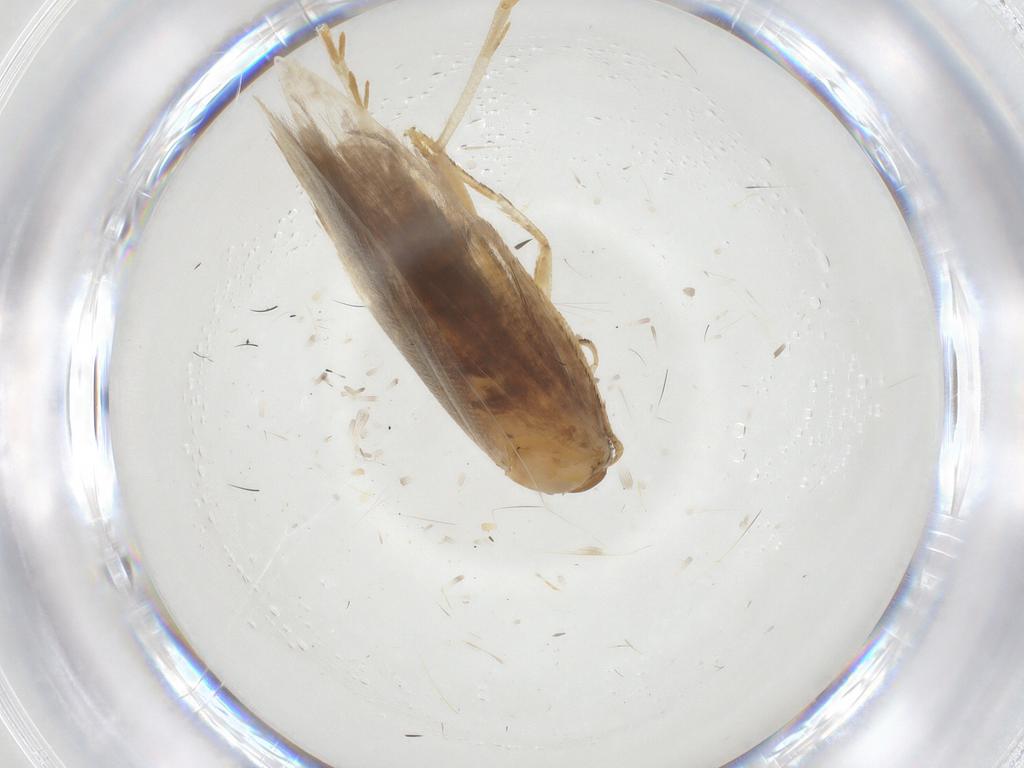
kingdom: Animalia
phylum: Arthropoda
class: Insecta
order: Lepidoptera
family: Gelechiidae
